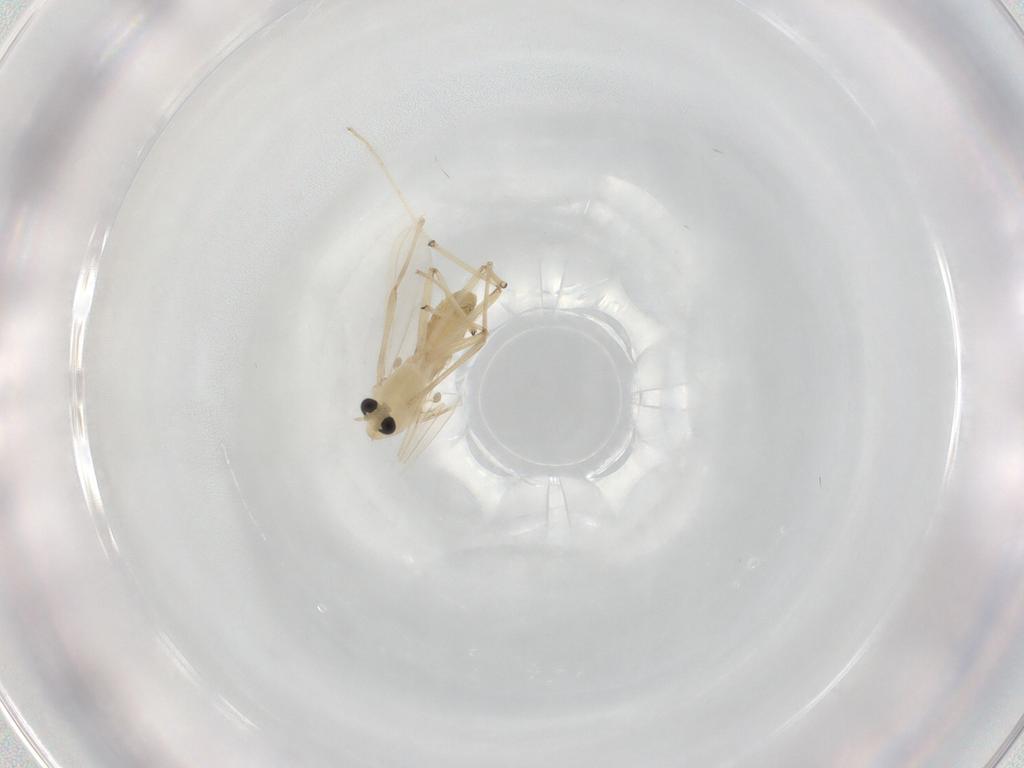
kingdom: Animalia
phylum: Arthropoda
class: Insecta
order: Diptera
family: Chironomidae
